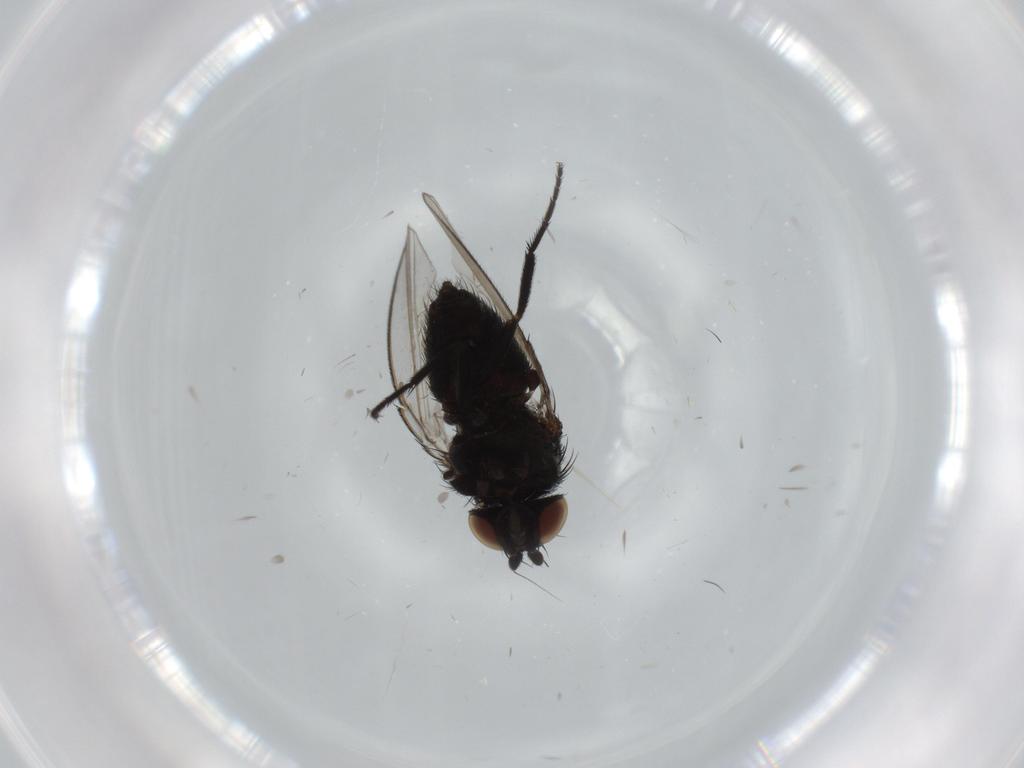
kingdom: Animalia
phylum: Arthropoda
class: Insecta
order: Diptera
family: Milichiidae
